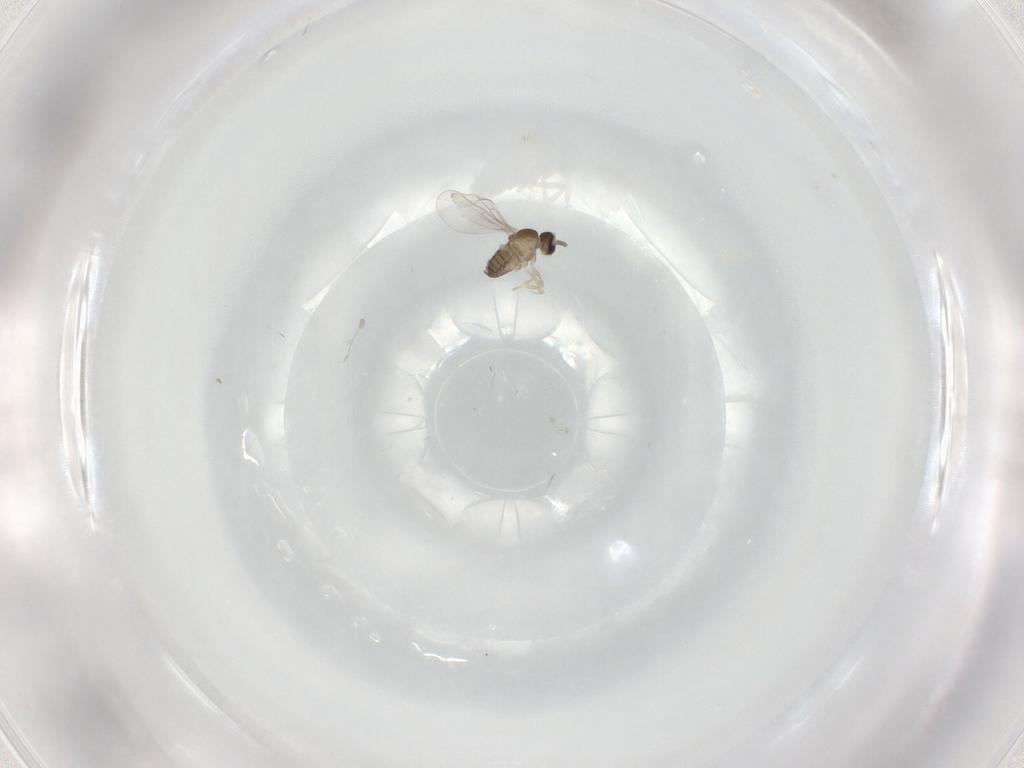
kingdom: Animalia
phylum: Arthropoda
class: Insecta
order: Diptera
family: Cecidomyiidae
